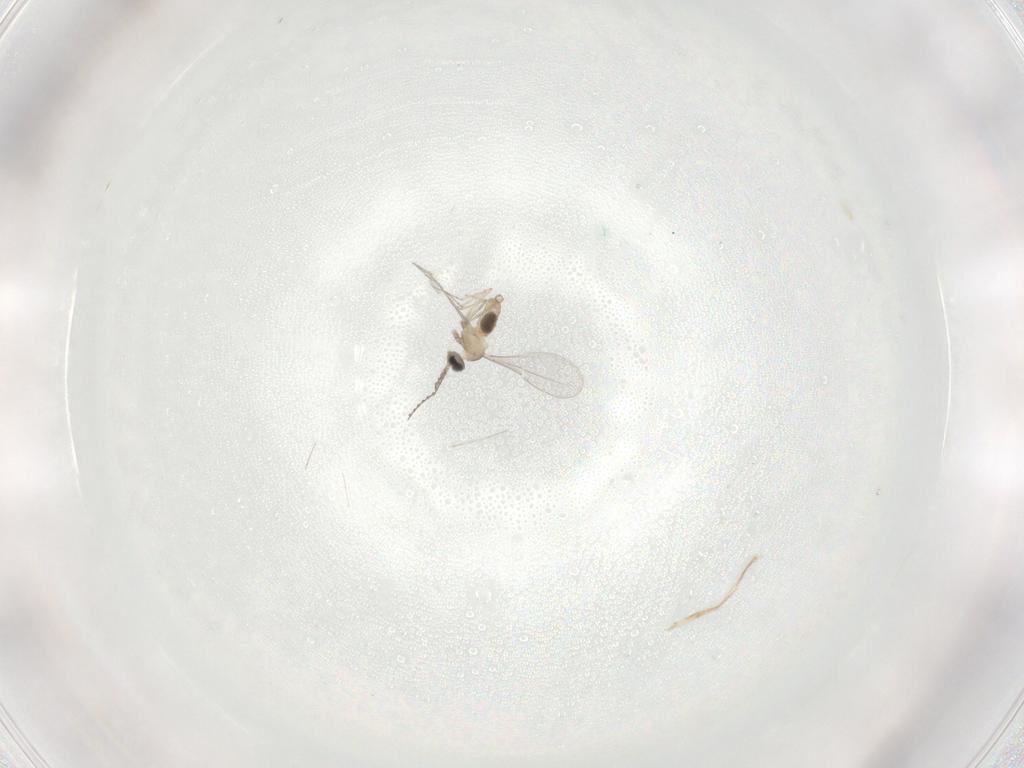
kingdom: Animalia
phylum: Arthropoda
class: Insecta
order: Diptera
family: Cecidomyiidae
